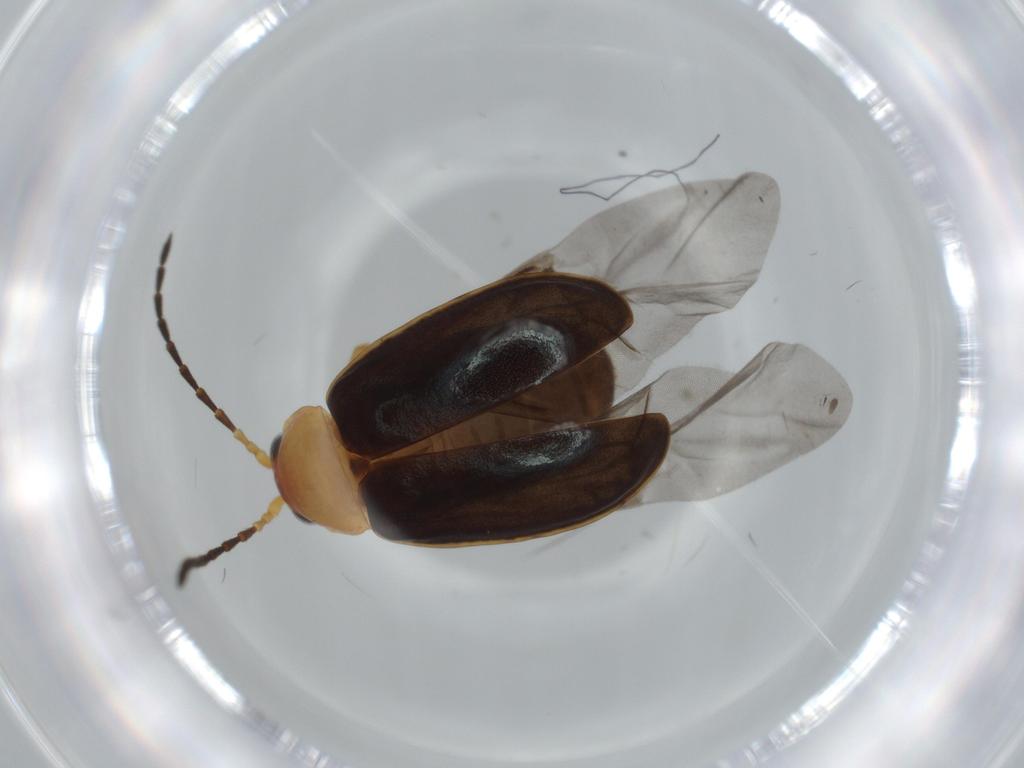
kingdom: Animalia
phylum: Arthropoda
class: Insecta
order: Coleoptera
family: Chrysomelidae
